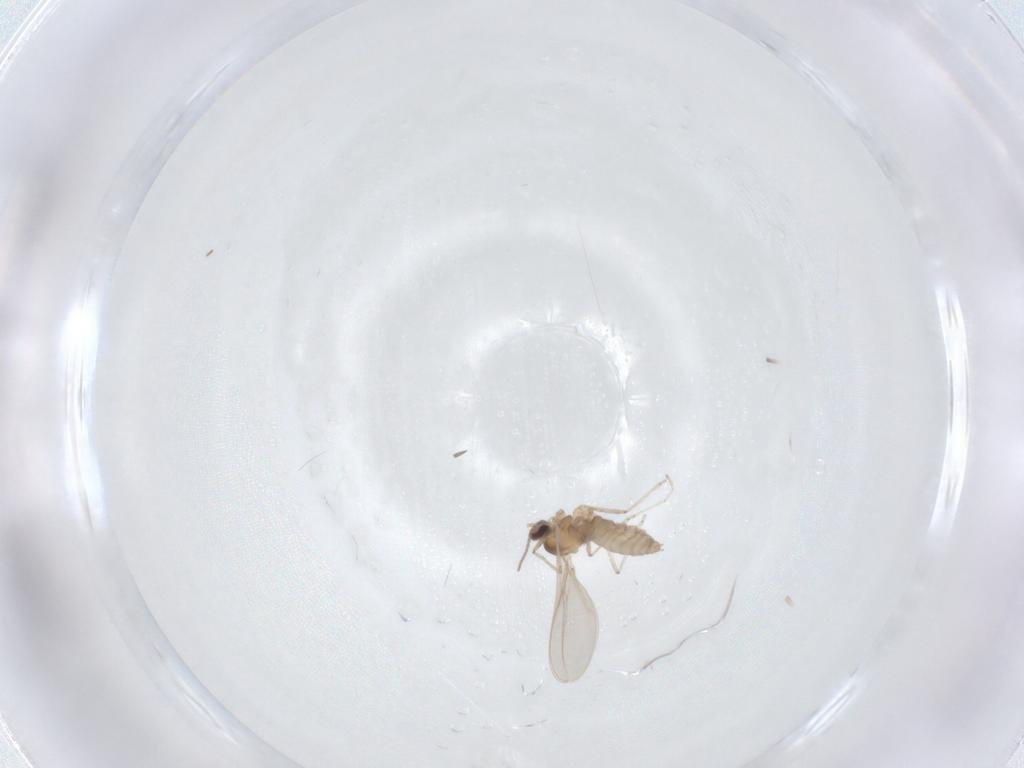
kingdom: Animalia
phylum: Arthropoda
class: Insecta
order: Diptera
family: Cecidomyiidae
